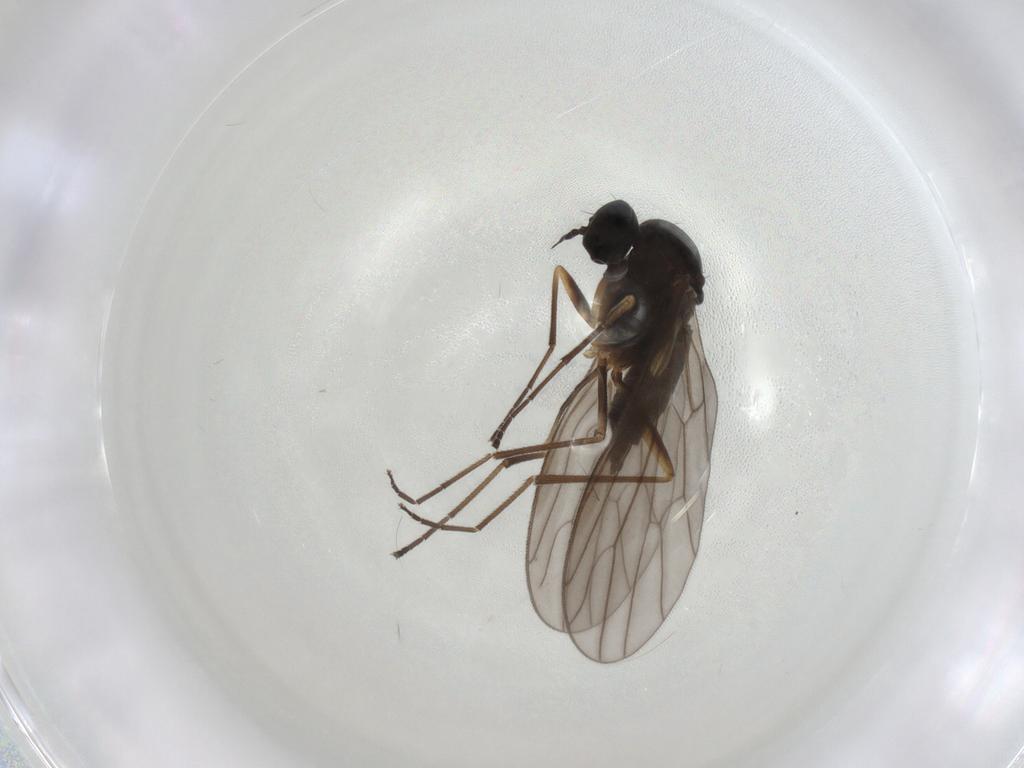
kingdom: Animalia
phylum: Arthropoda
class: Insecta
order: Diptera
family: Empididae
